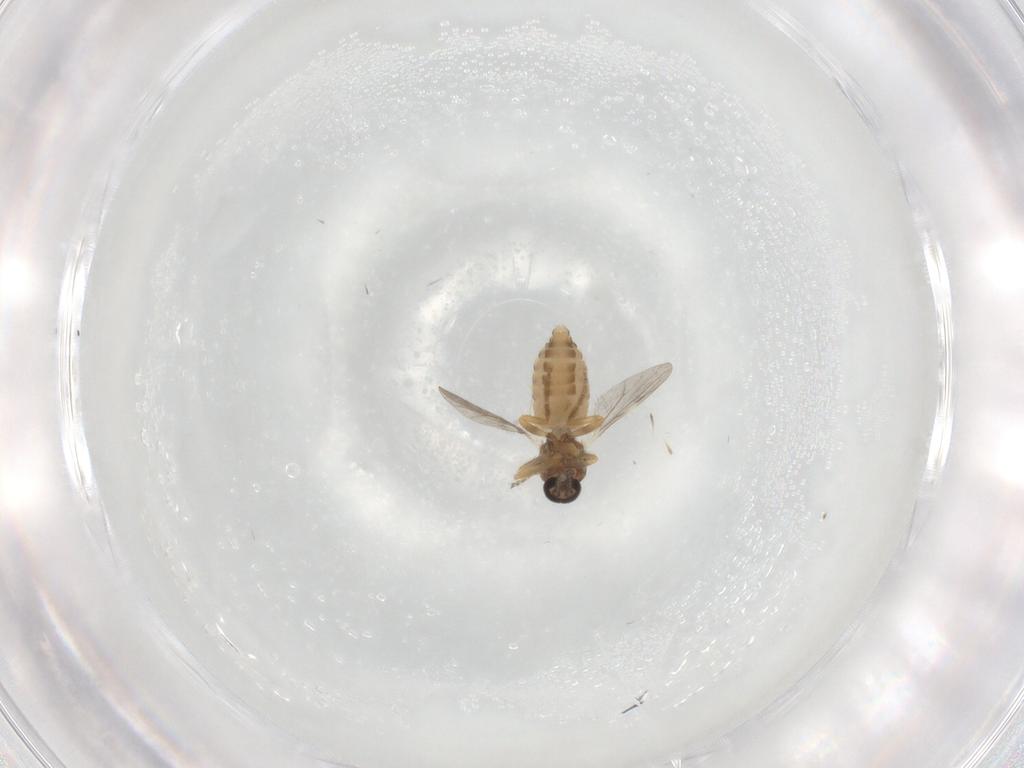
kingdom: Animalia
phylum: Arthropoda
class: Insecta
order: Diptera
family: Ceratopogonidae
